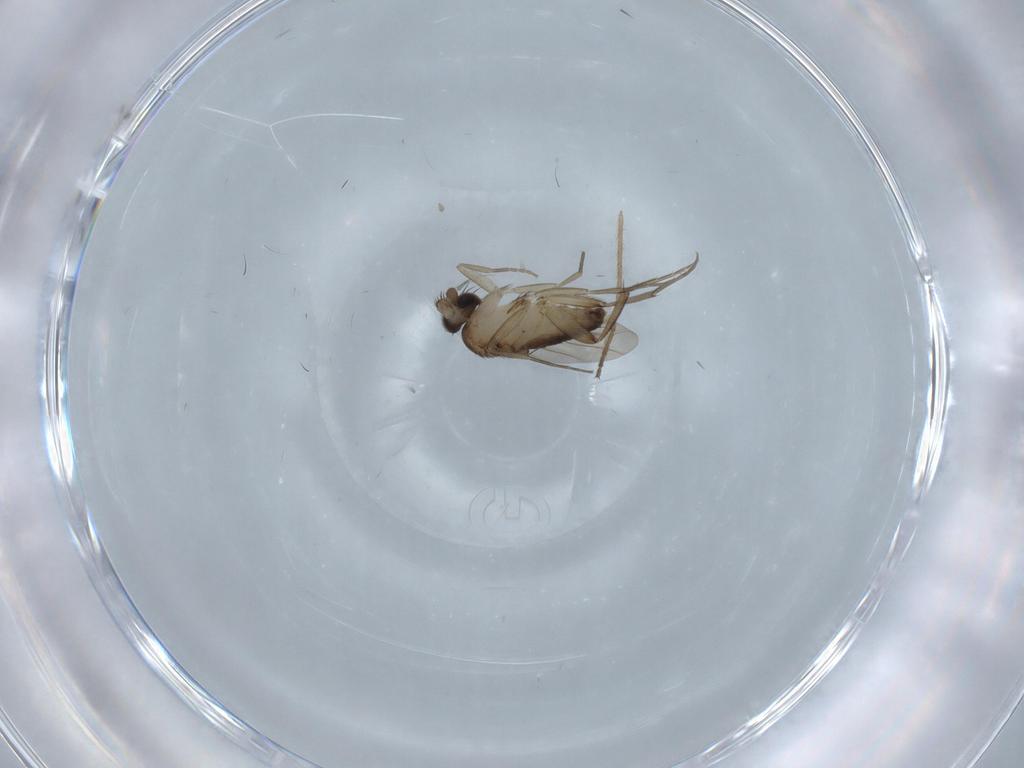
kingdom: Animalia
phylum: Arthropoda
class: Insecta
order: Diptera
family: Phoridae
